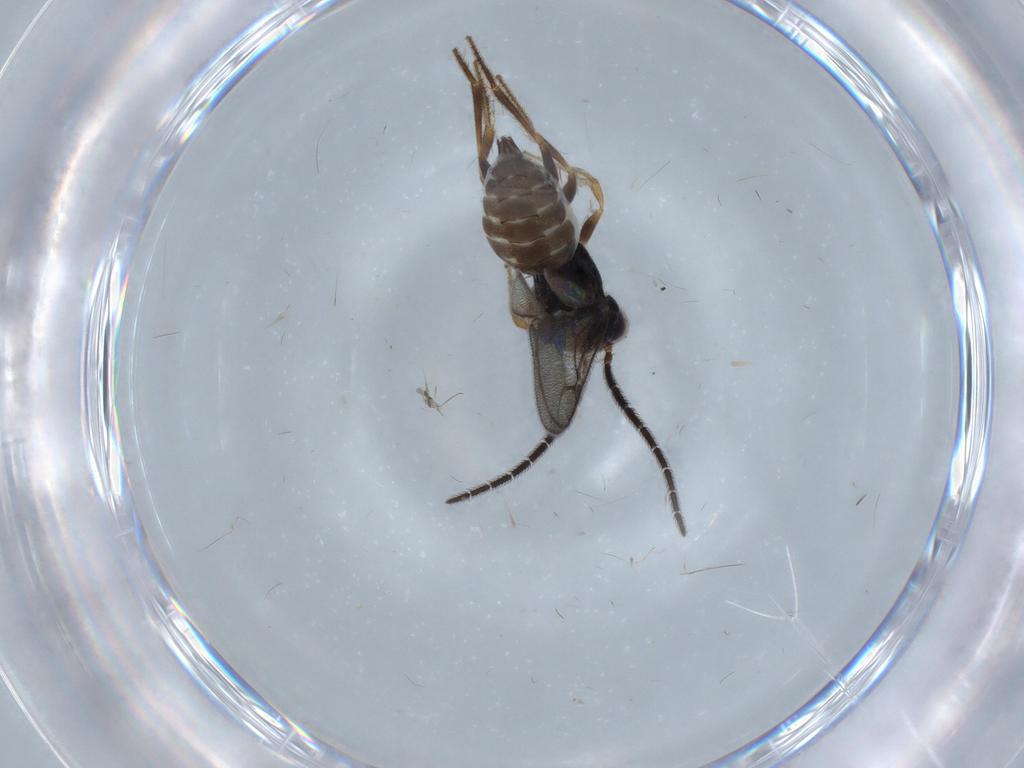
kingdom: Animalia
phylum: Arthropoda
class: Insecta
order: Hymenoptera
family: Dryinidae
